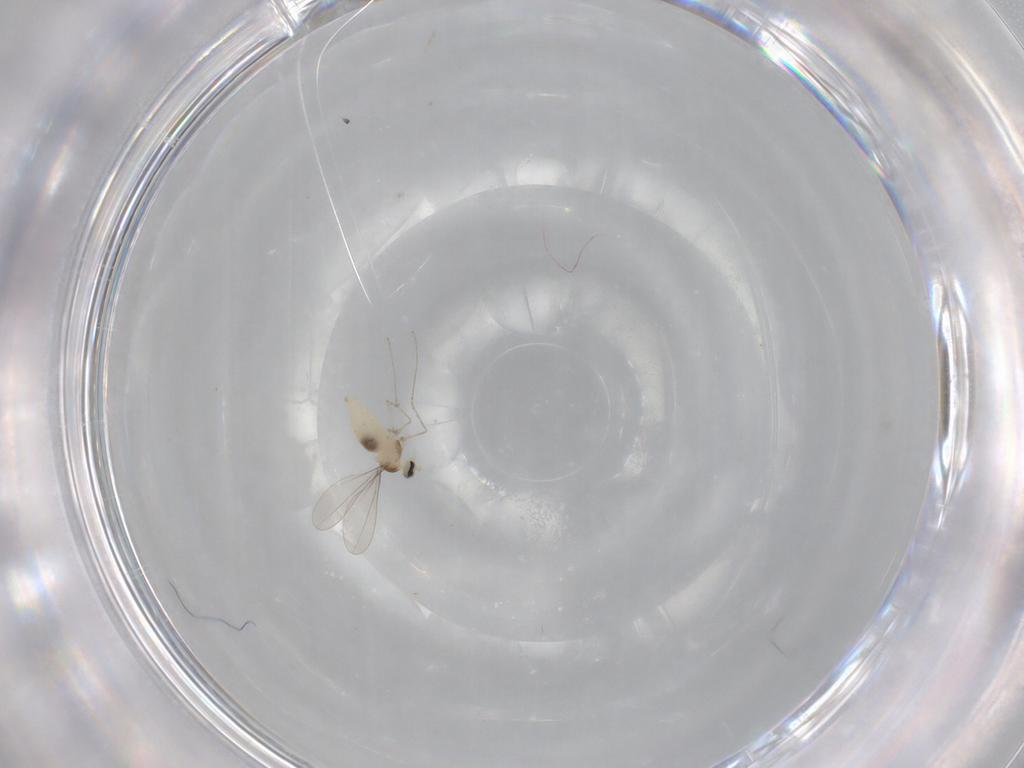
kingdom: Animalia
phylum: Arthropoda
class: Insecta
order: Diptera
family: Cecidomyiidae
